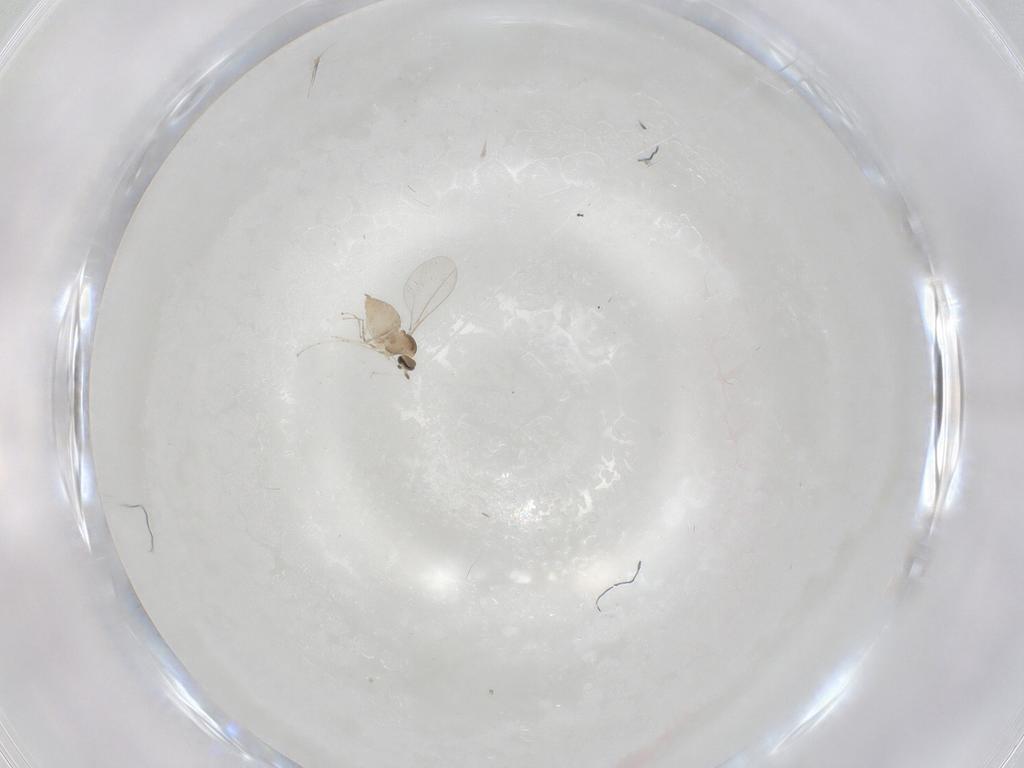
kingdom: Animalia
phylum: Arthropoda
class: Insecta
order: Diptera
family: Cecidomyiidae
